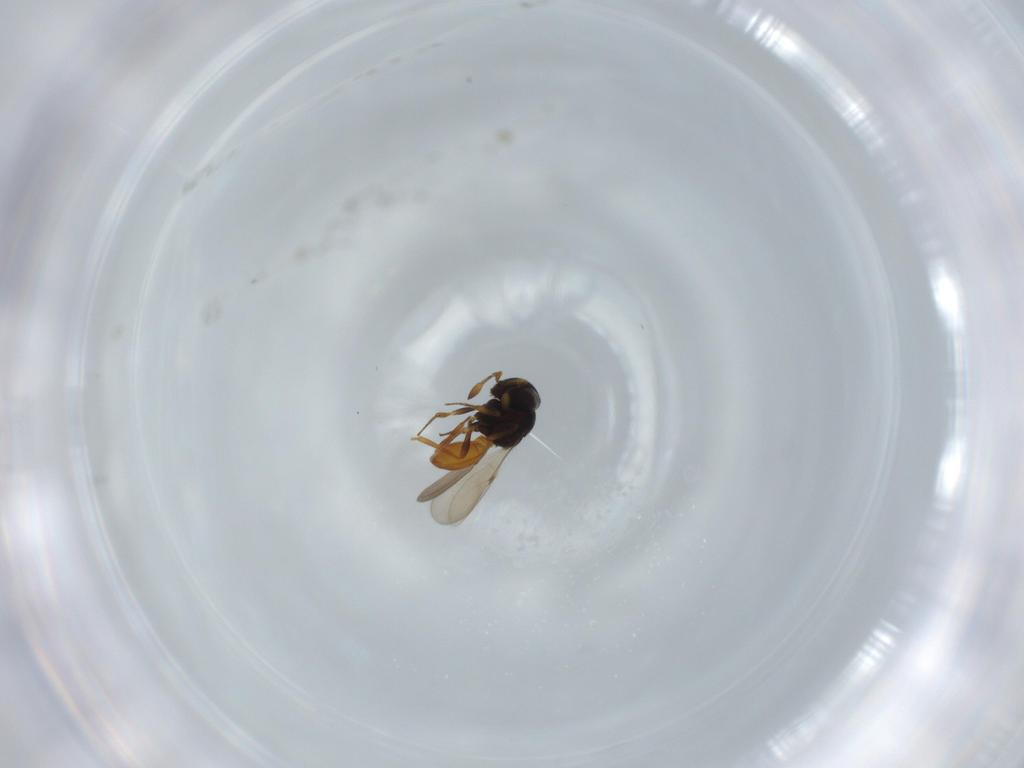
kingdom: Animalia
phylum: Arthropoda
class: Insecta
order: Hymenoptera
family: Scelionidae
